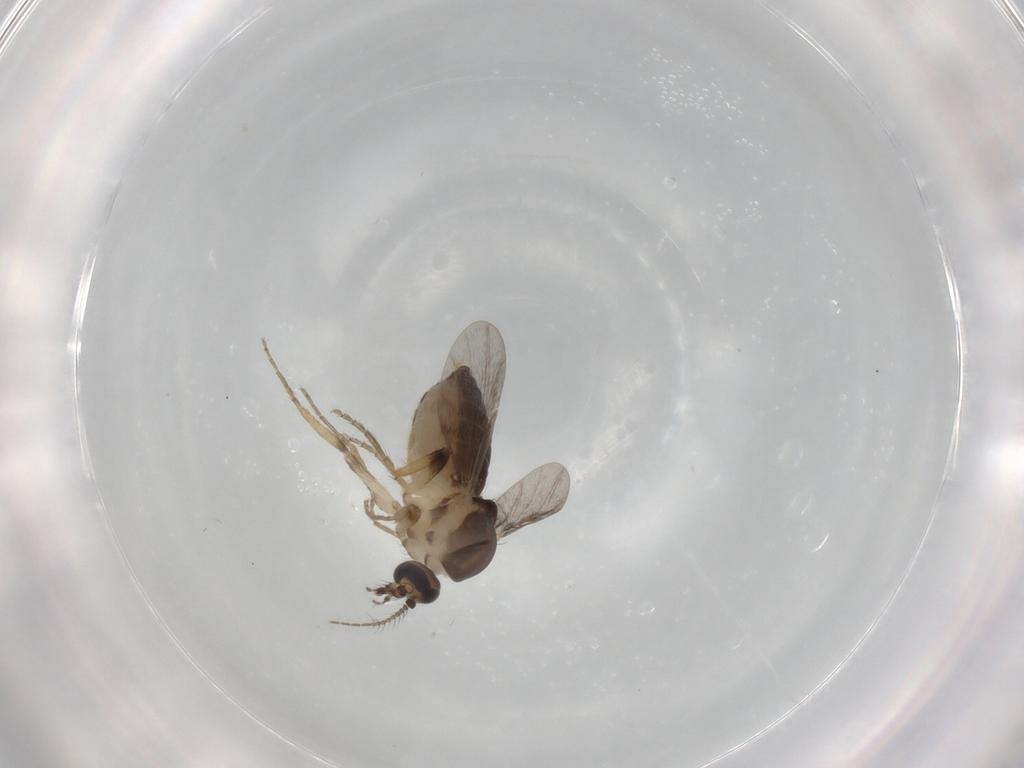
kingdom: Animalia
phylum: Arthropoda
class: Insecta
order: Diptera
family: Ceratopogonidae
